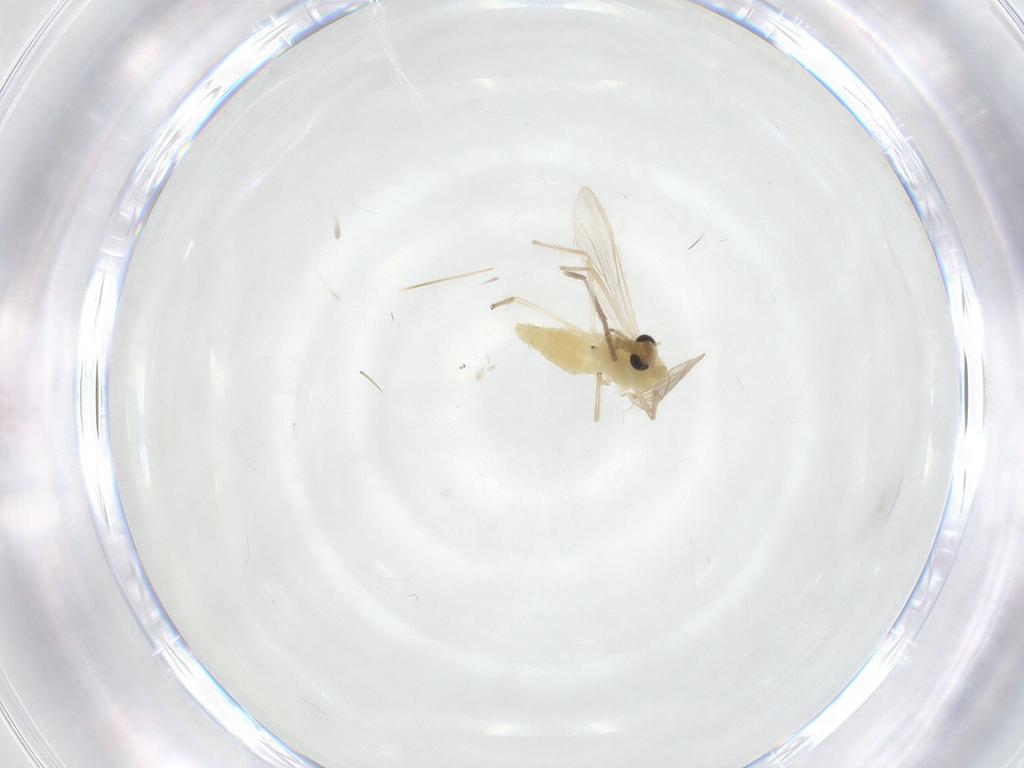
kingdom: Animalia
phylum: Arthropoda
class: Insecta
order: Diptera
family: Chironomidae
